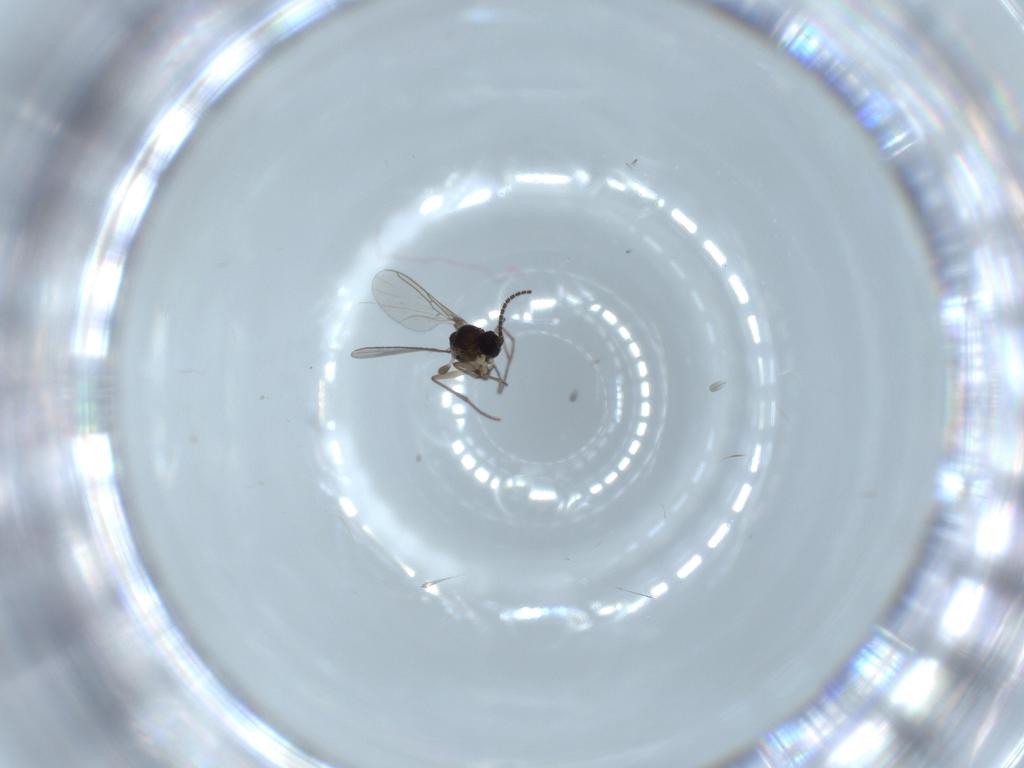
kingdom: Animalia
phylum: Arthropoda
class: Insecta
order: Diptera
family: Sciaridae
